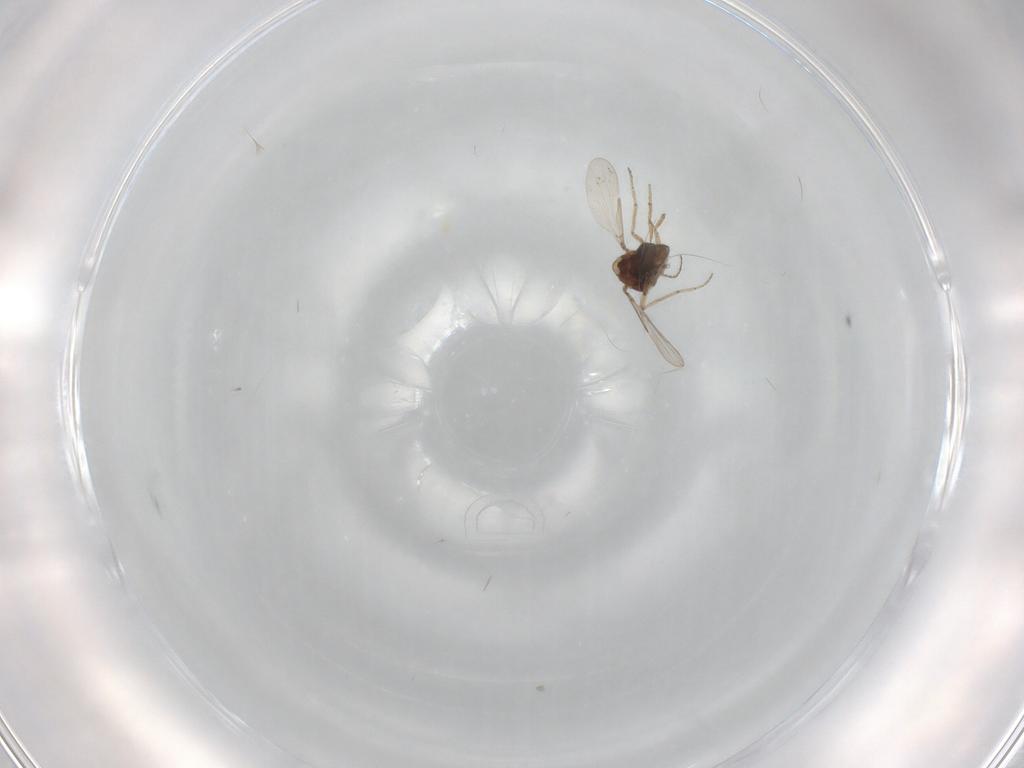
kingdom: Animalia
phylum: Arthropoda
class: Insecta
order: Diptera
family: Ceratopogonidae
